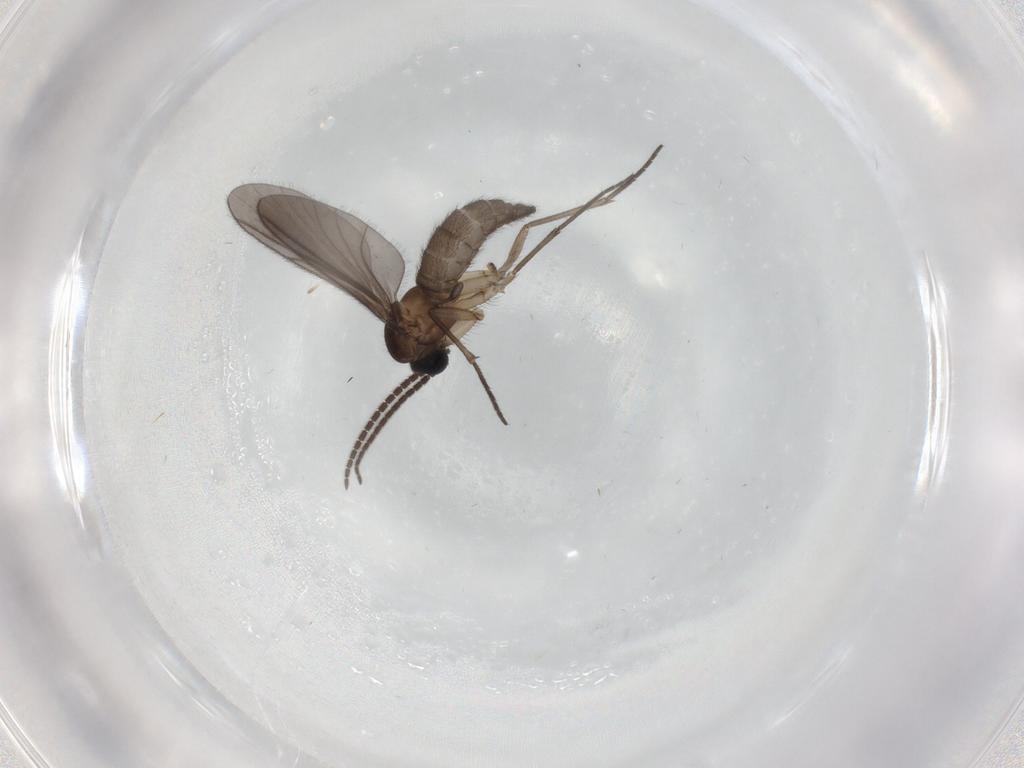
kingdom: Animalia
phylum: Arthropoda
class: Insecta
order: Diptera
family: Sciaridae
